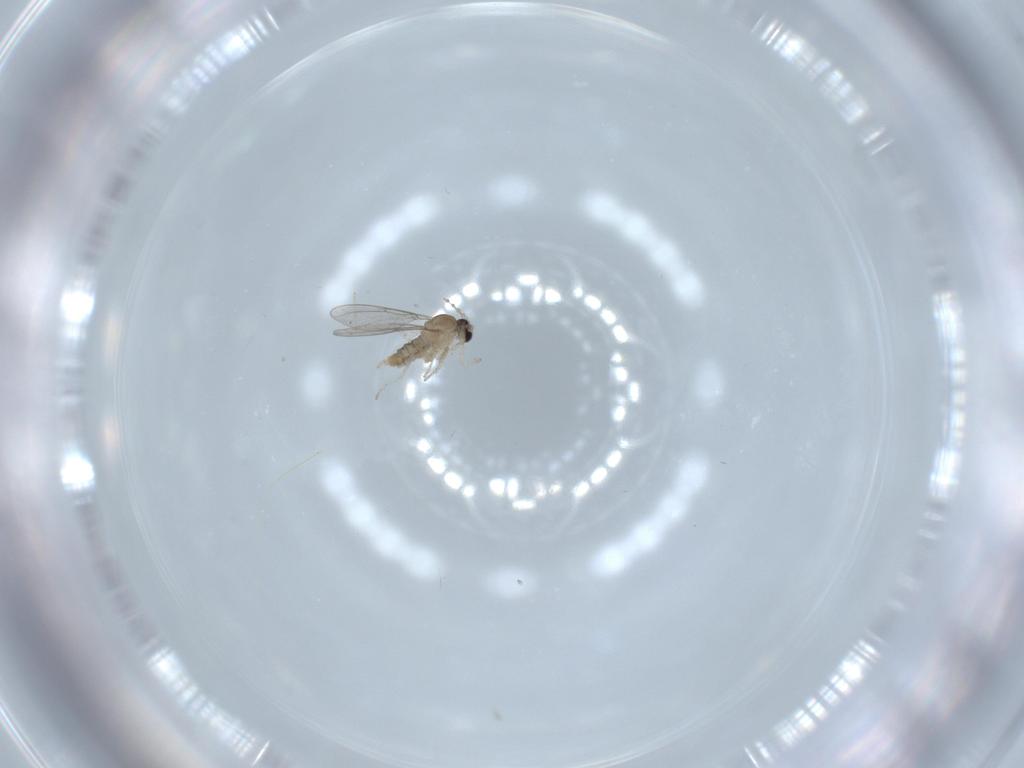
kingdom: Animalia
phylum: Arthropoda
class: Insecta
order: Diptera
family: Cecidomyiidae
